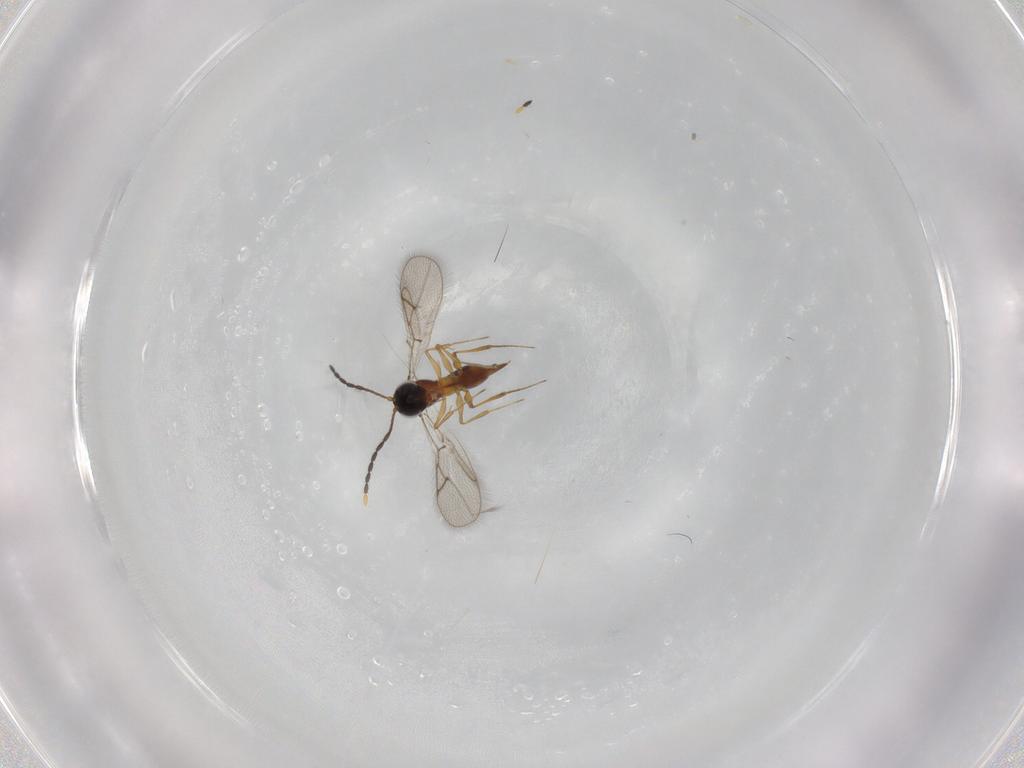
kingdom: Animalia
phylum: Arthropoda
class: Insecta
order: Hymenoptera
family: Figitidae
